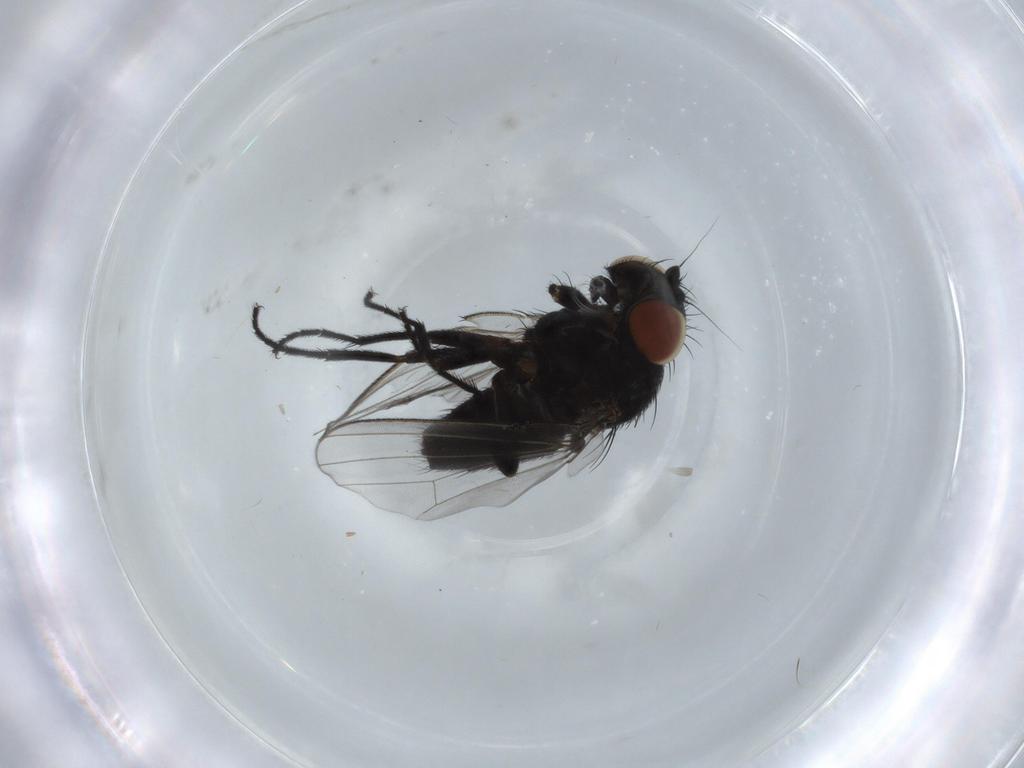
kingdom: Animalia
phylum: Arthropoda
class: Insecta
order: Diptera
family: Milichiidae
